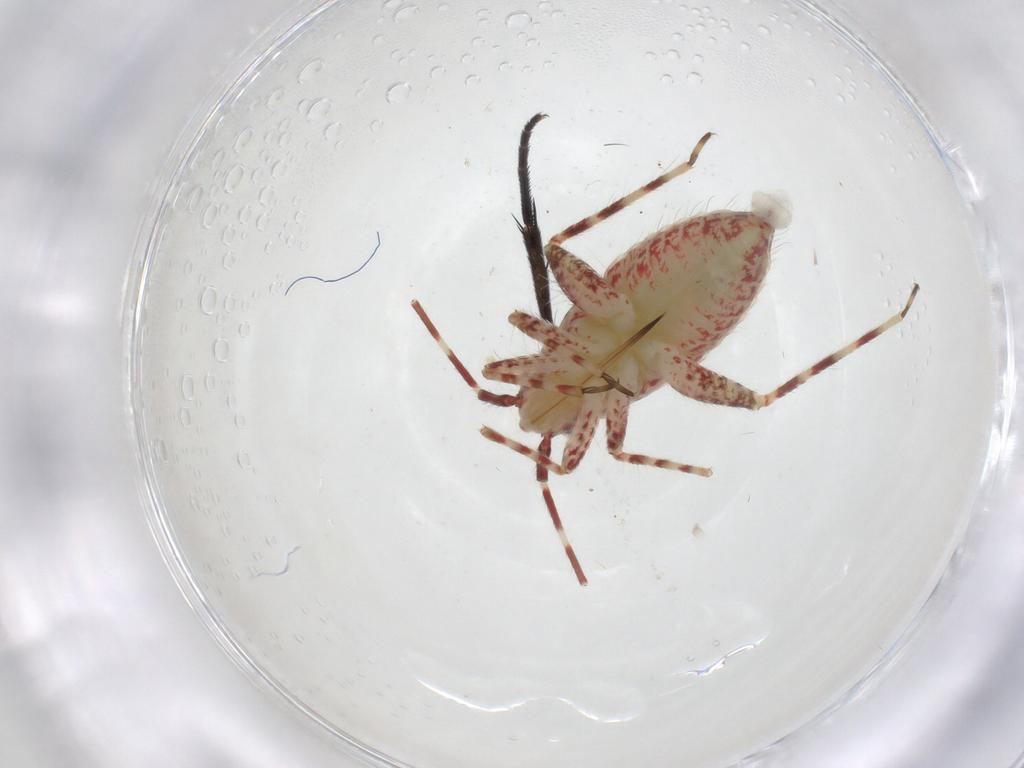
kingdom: Animalia
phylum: Arthropoda
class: Insecta
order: Hemiptera
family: Miridae
